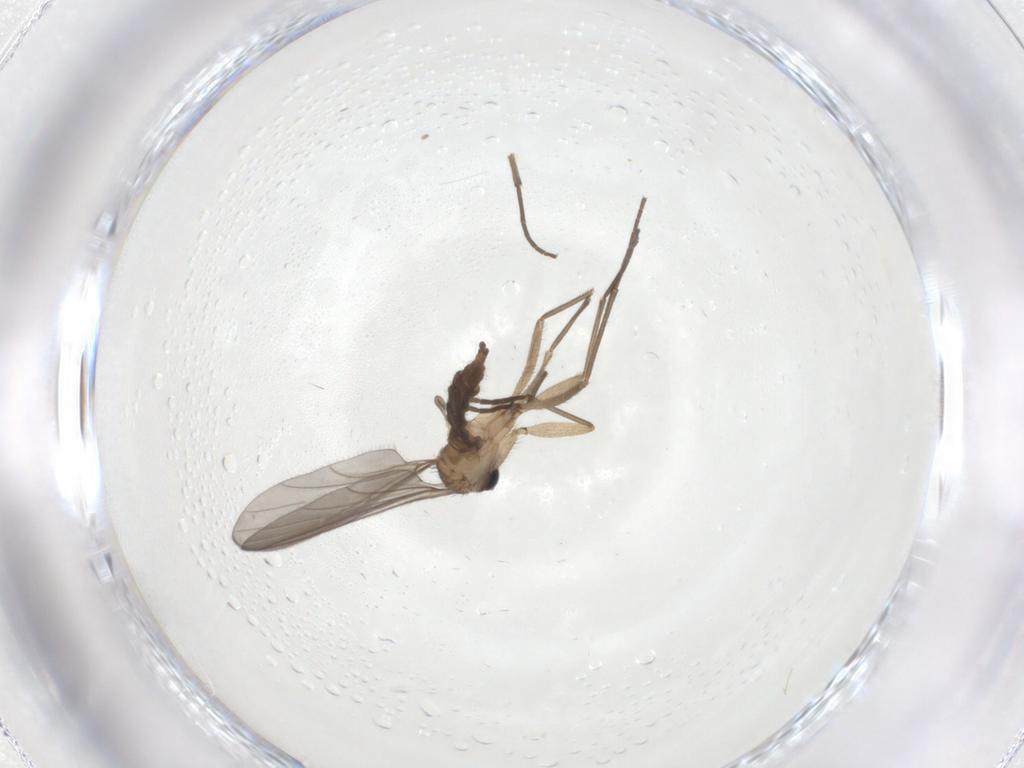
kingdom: Animalia
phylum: Arthropoda
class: Insecta
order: Diptera
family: Sciaridae
